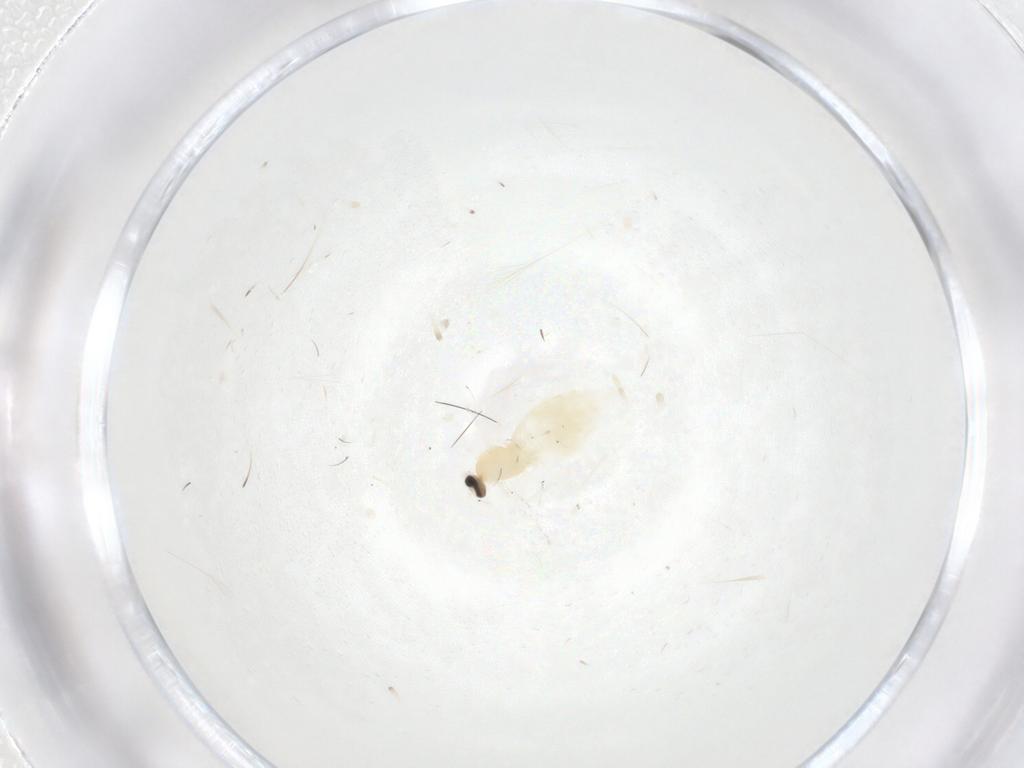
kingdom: Animalia
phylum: Arthropoda
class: Insecta
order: Diptera
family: Cecidomyiidae
